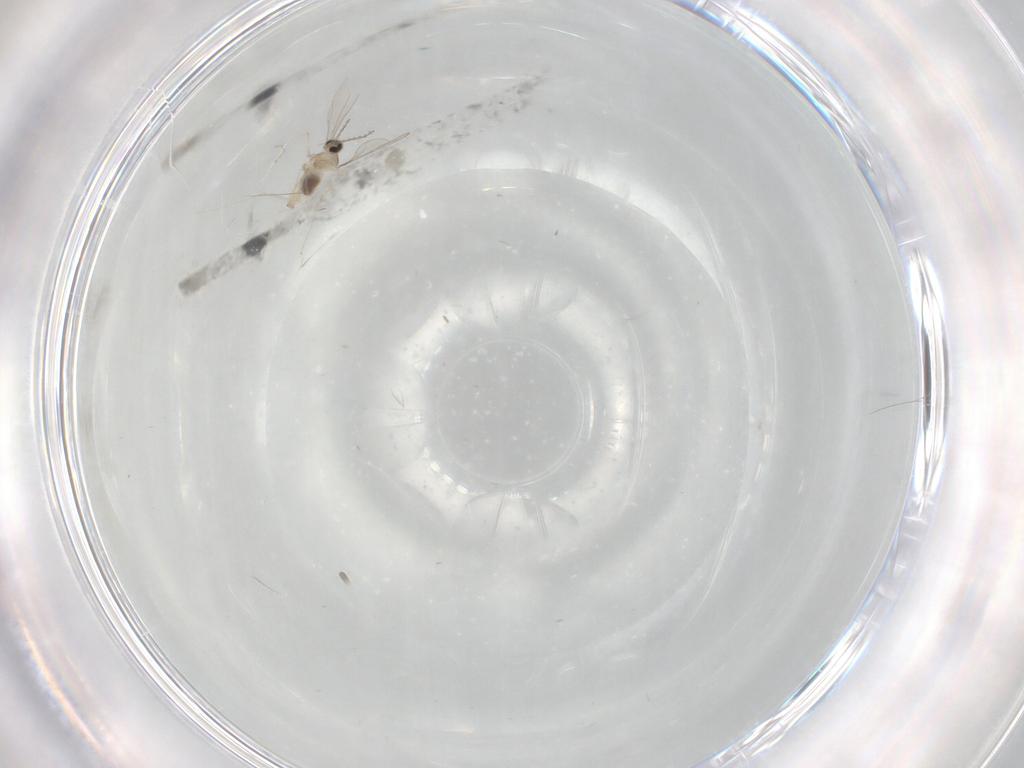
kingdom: Animalia
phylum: Arthropoda
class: Insecta
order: Diptera
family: Cecidomyiidae
